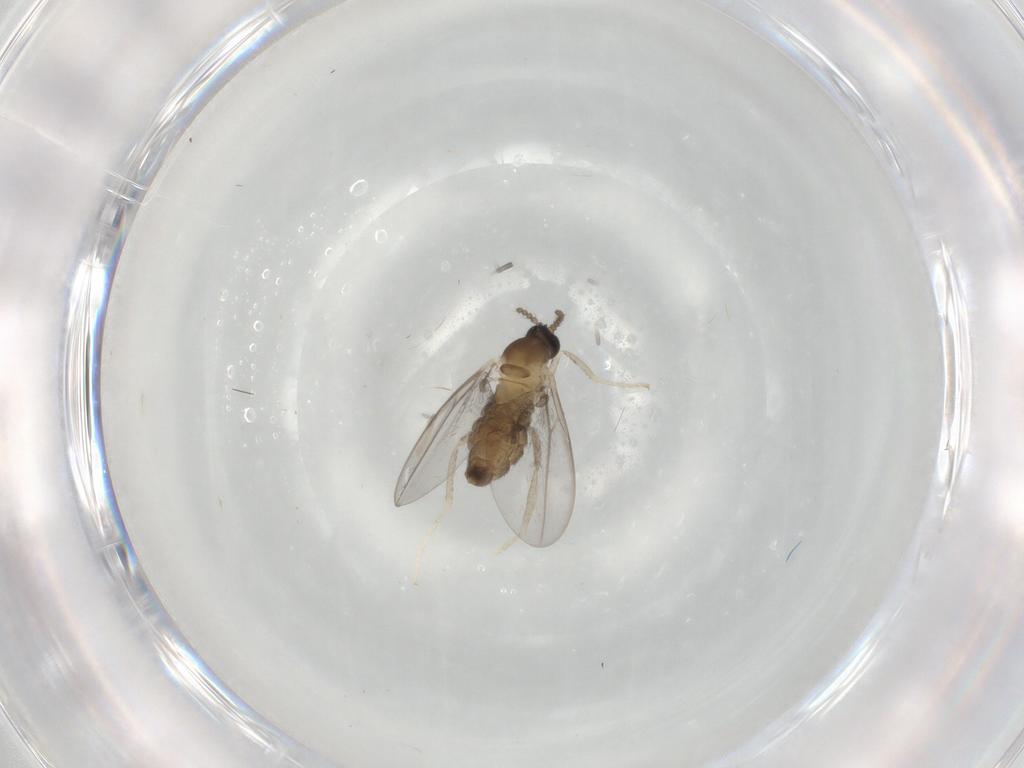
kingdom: Animalia
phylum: Arthropoda
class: Insecta
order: Diptera
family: Cecidomyiidae
